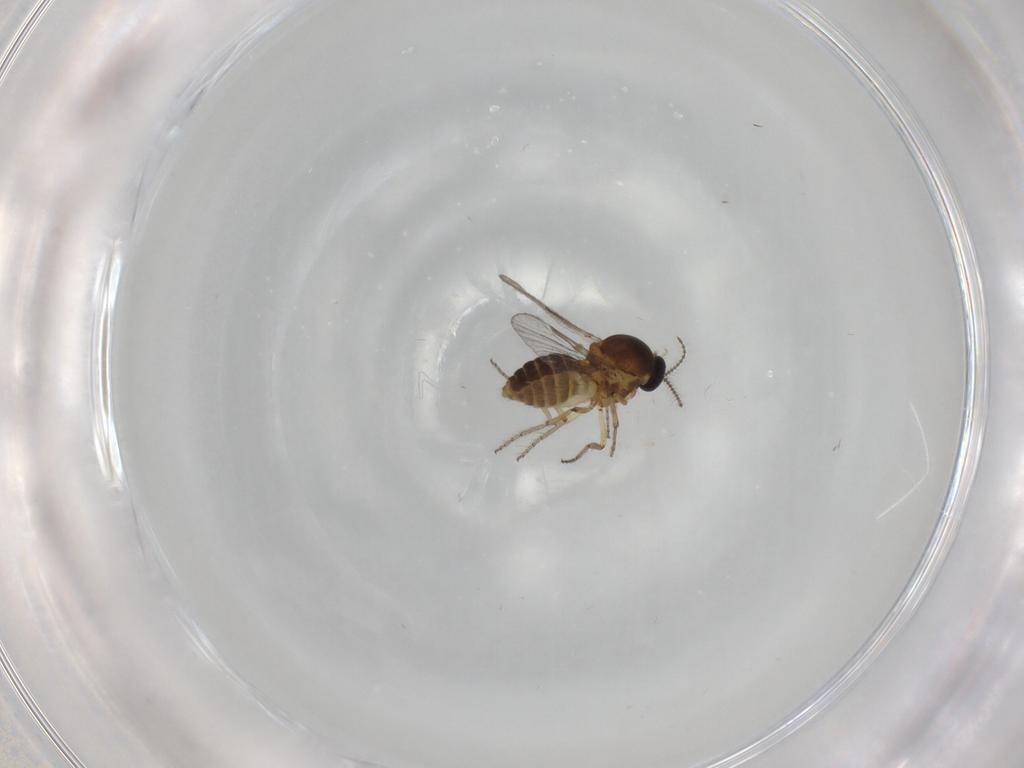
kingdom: Animalia
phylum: Arthropoda
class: Insecta
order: Diptera
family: Ceratopogonidae
